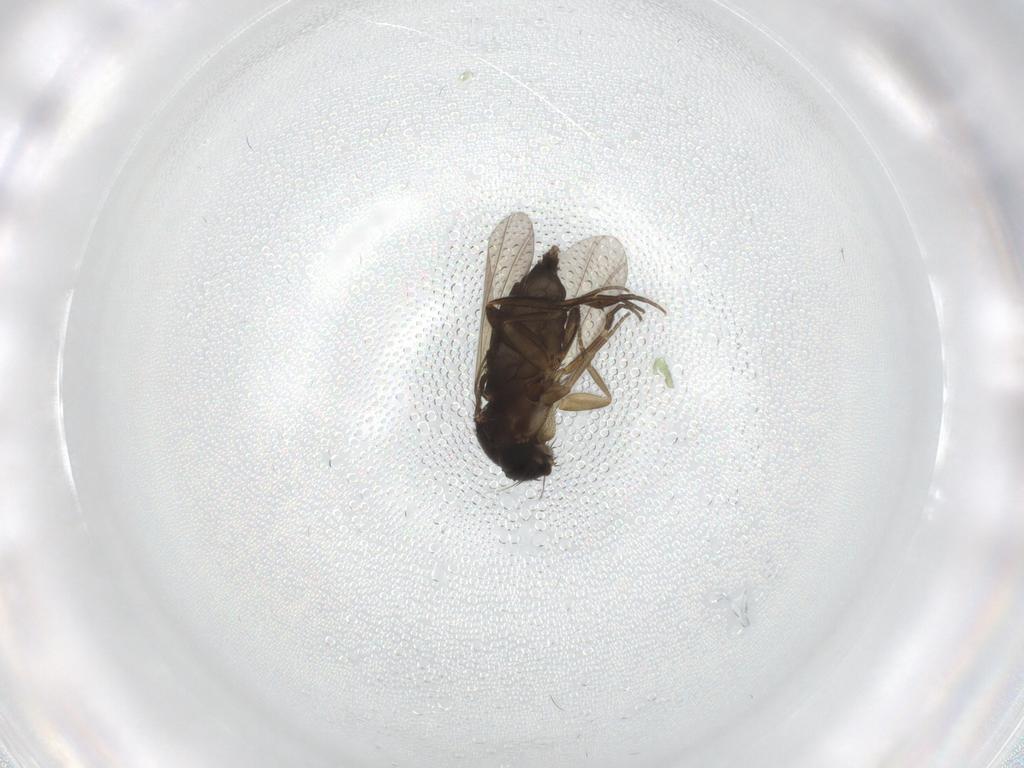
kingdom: Animalia
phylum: Arthropoda
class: Insecta
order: Diptera
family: Phoridae
